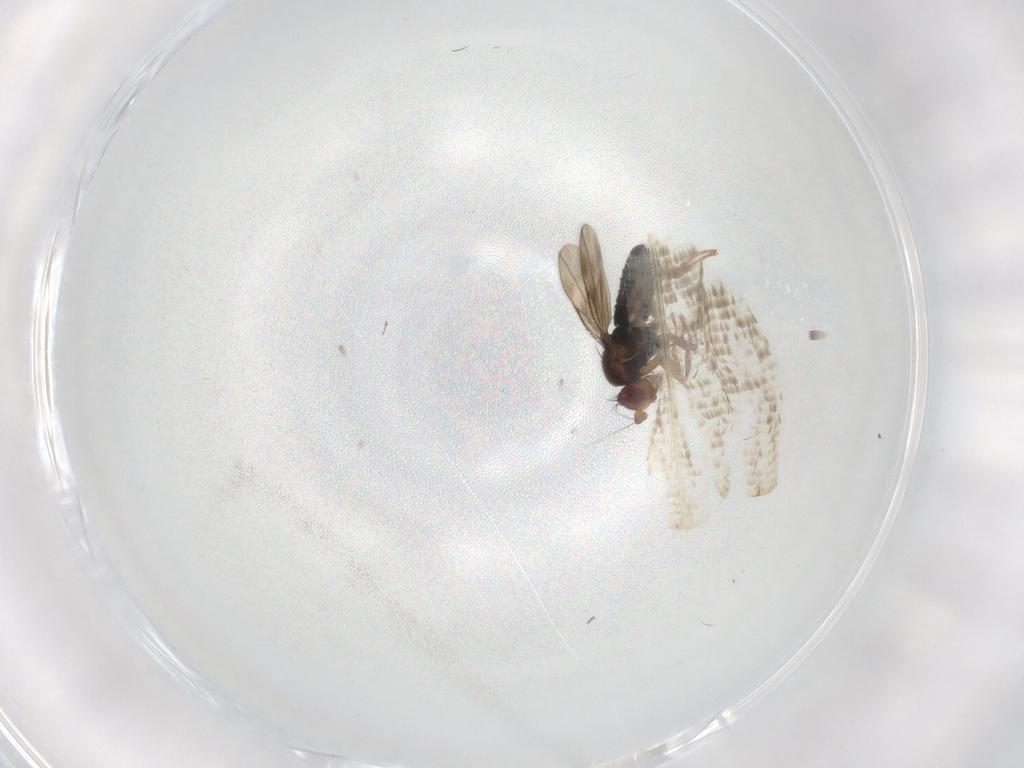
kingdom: Animalia
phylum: Arthropoda
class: Insecta
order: Diptera
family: Sphaeroceridae
